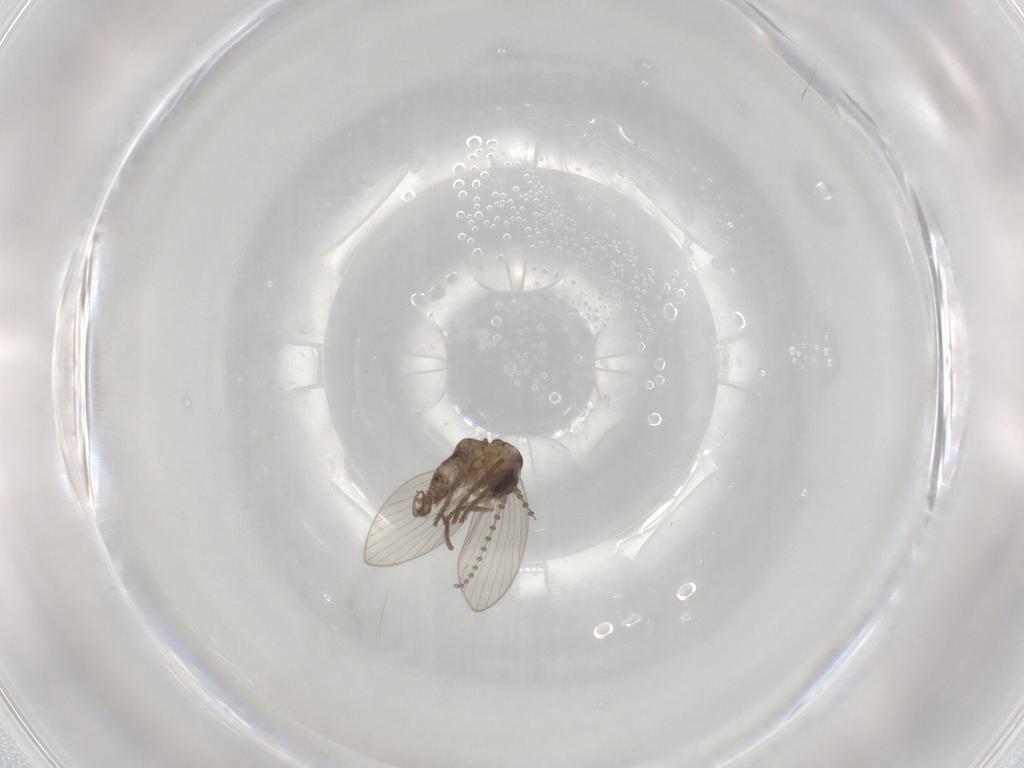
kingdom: Animalia
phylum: Arthropoda
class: Insecta
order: Diptera
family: Psychodidae
